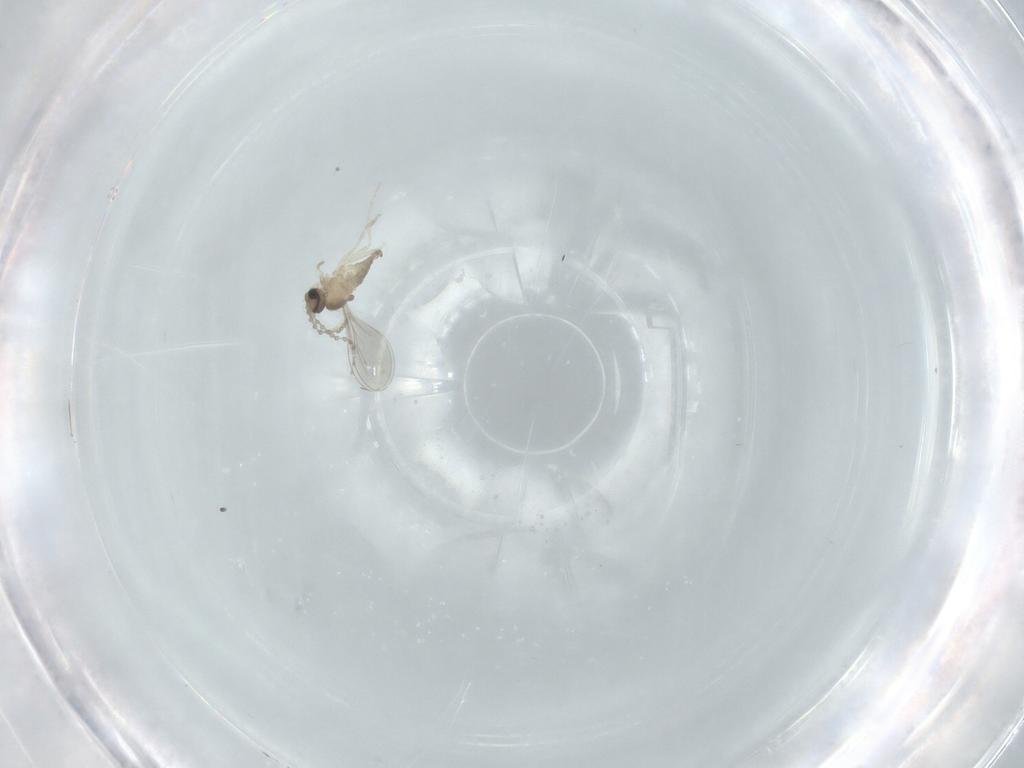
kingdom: Animalia
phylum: Arthropoda
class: Insecta
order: Diptera
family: Cecidomyiidae
